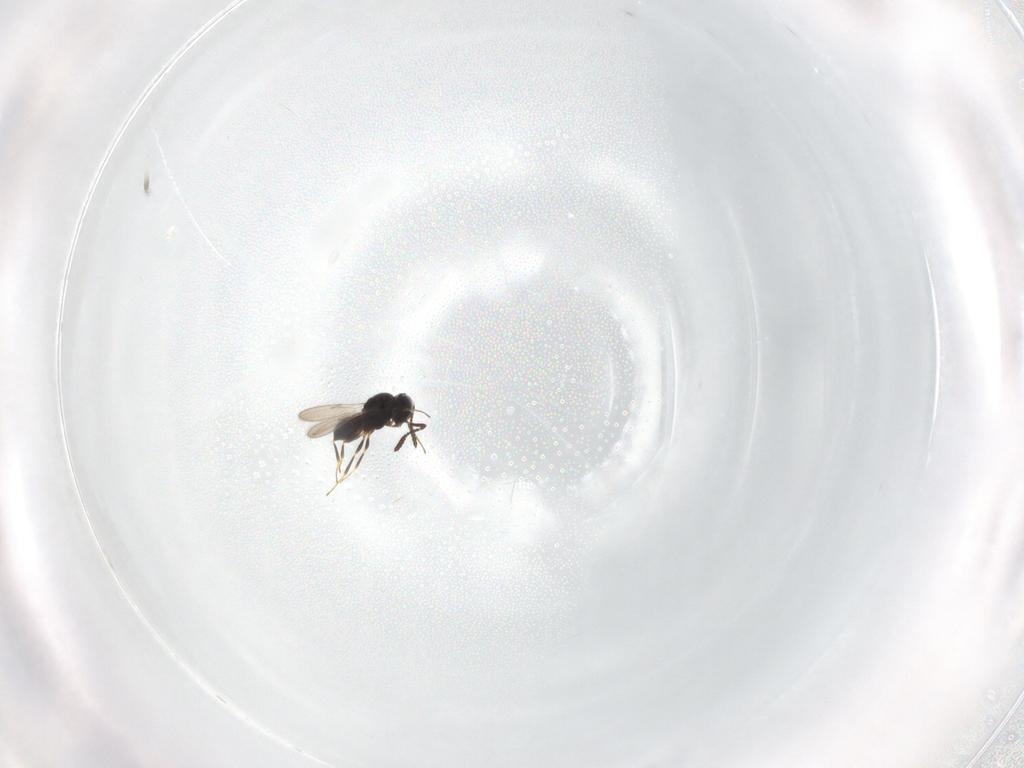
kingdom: Animalia
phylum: Arthropoda
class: Insecta
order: Hymenoptera
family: Scelionidae
